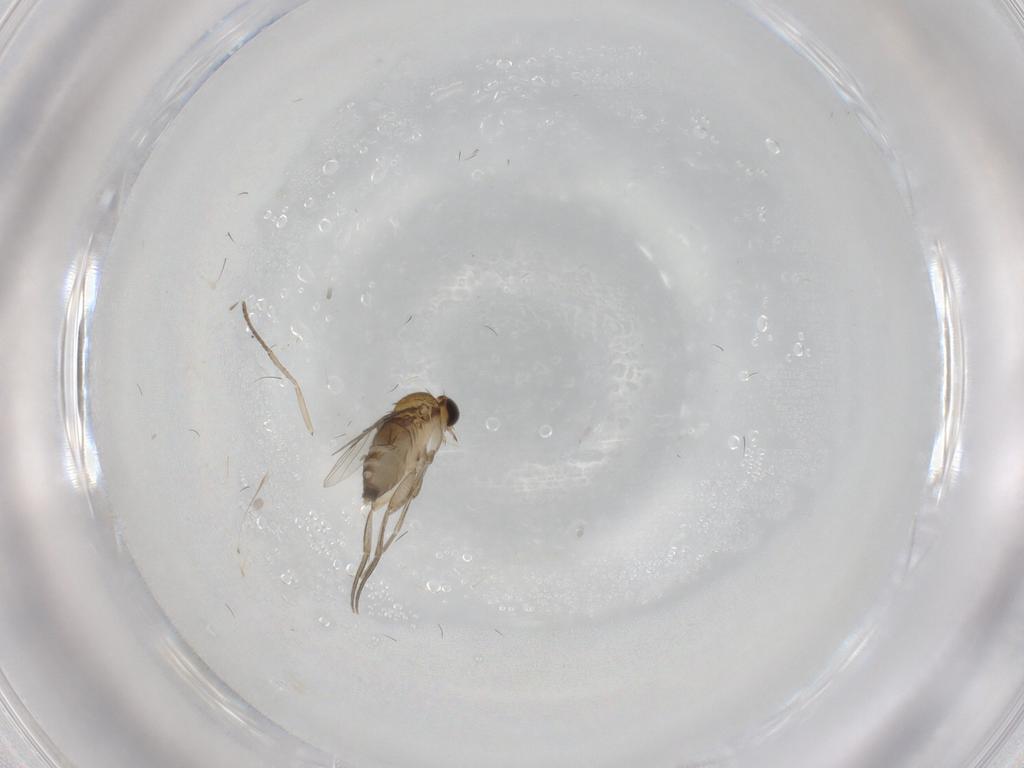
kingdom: Animalia
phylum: Arthropoda
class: Insecta
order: Diptera
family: Phoridae
